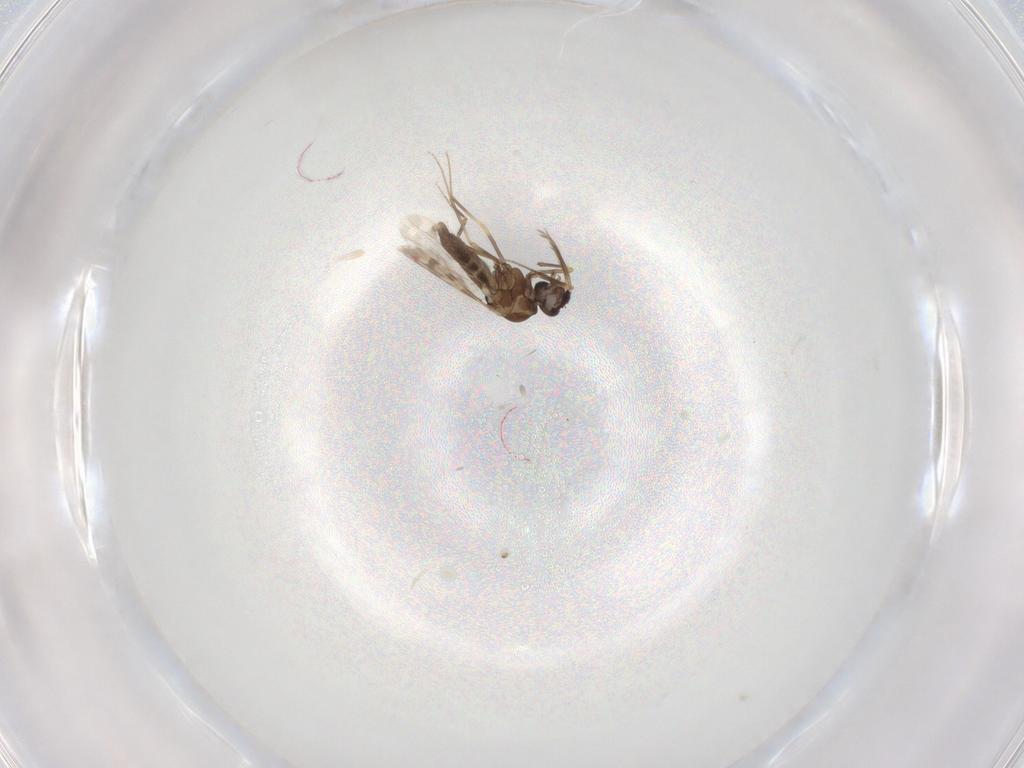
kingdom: Animalia
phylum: Arthropoda
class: Insecta
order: Diptera
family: Ceratopogonidae
